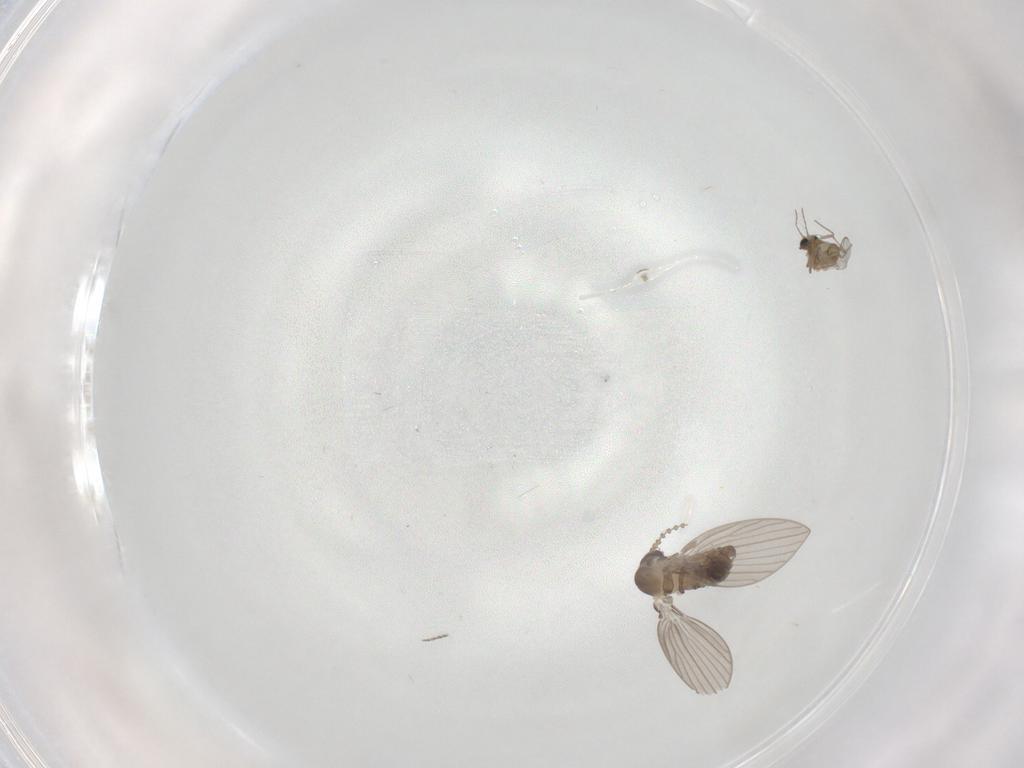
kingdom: Animalia
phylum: Arthropoda
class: Insecta
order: Diptera
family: Psychodidae
